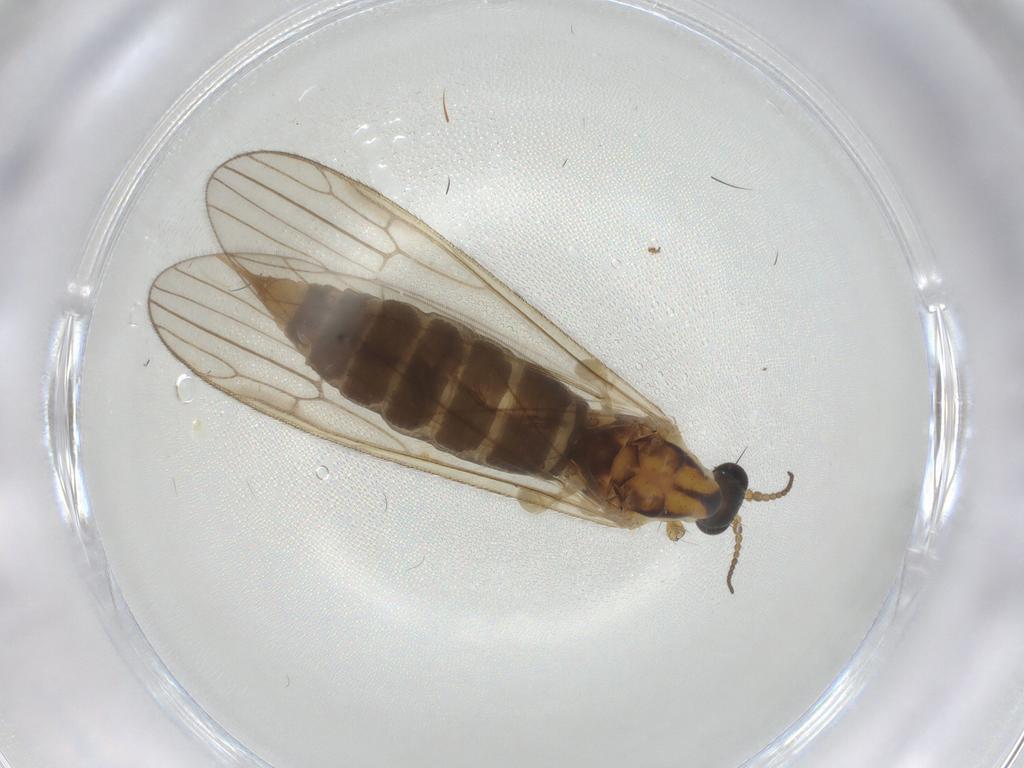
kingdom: Animalia
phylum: Arthropoda
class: Insecta
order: Diptera
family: Limoniidae
